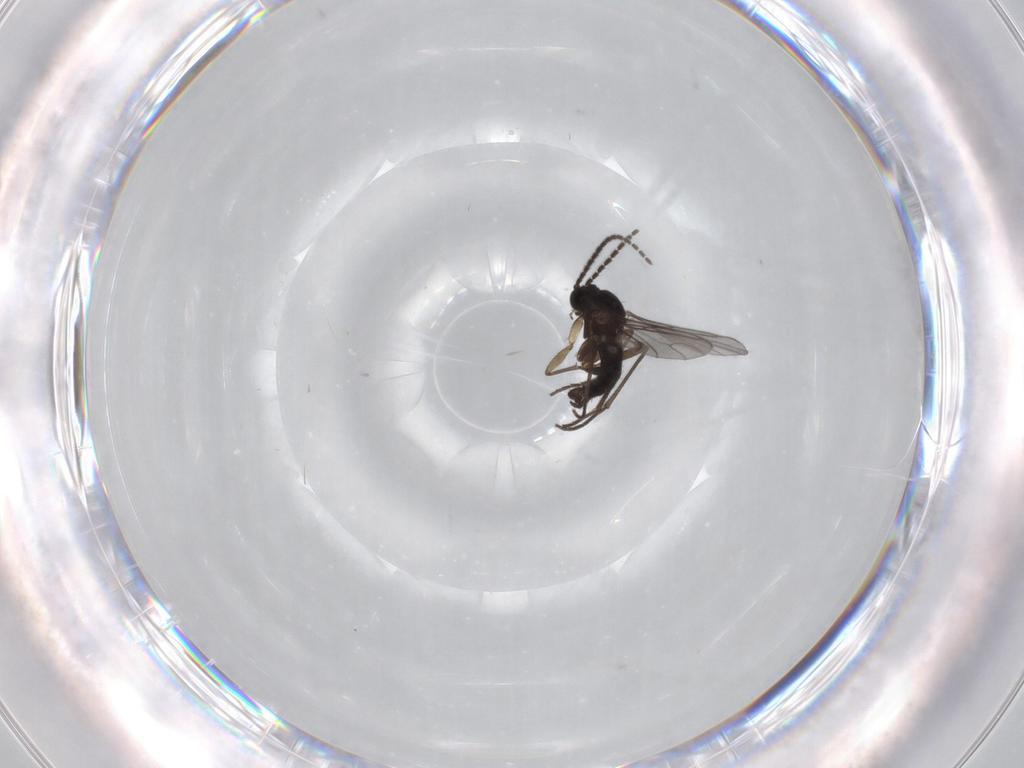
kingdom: Animalia
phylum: Arthropoda
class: Insecta
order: Diptera
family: Sciaridae
